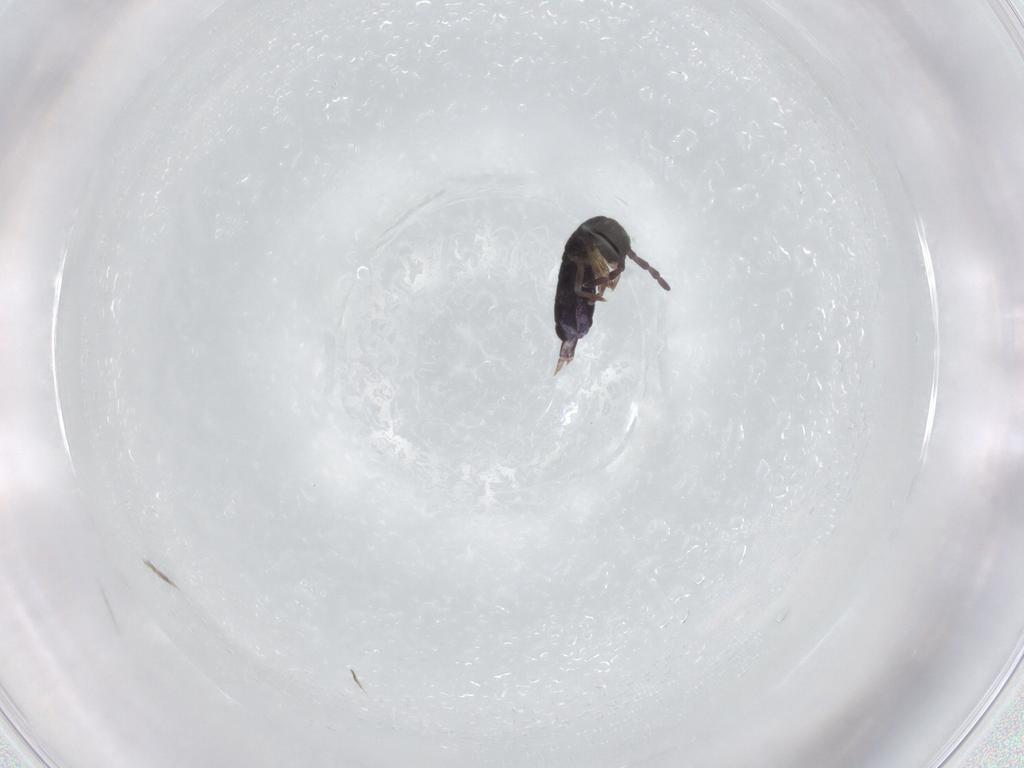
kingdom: Animalia
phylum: Arthropoda
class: Collembola
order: Entomobryomorpha
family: Isotomidae
